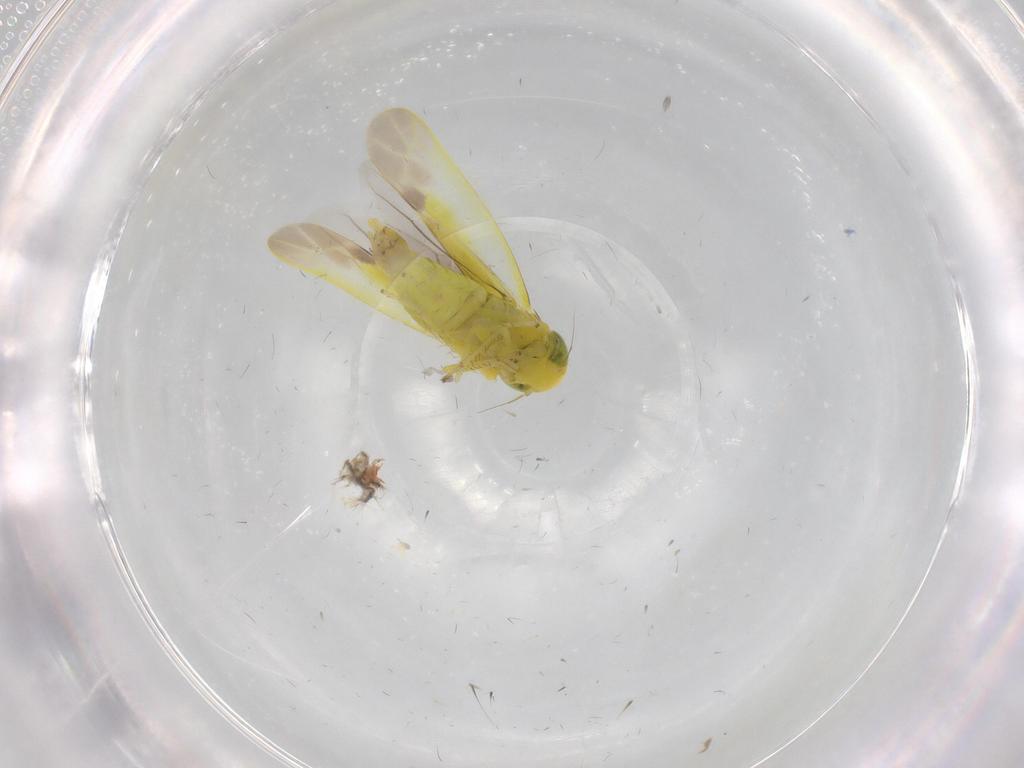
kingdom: Animalia
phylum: Arthropoda
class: Insecta
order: Hemiptera
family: Cicadellidae
